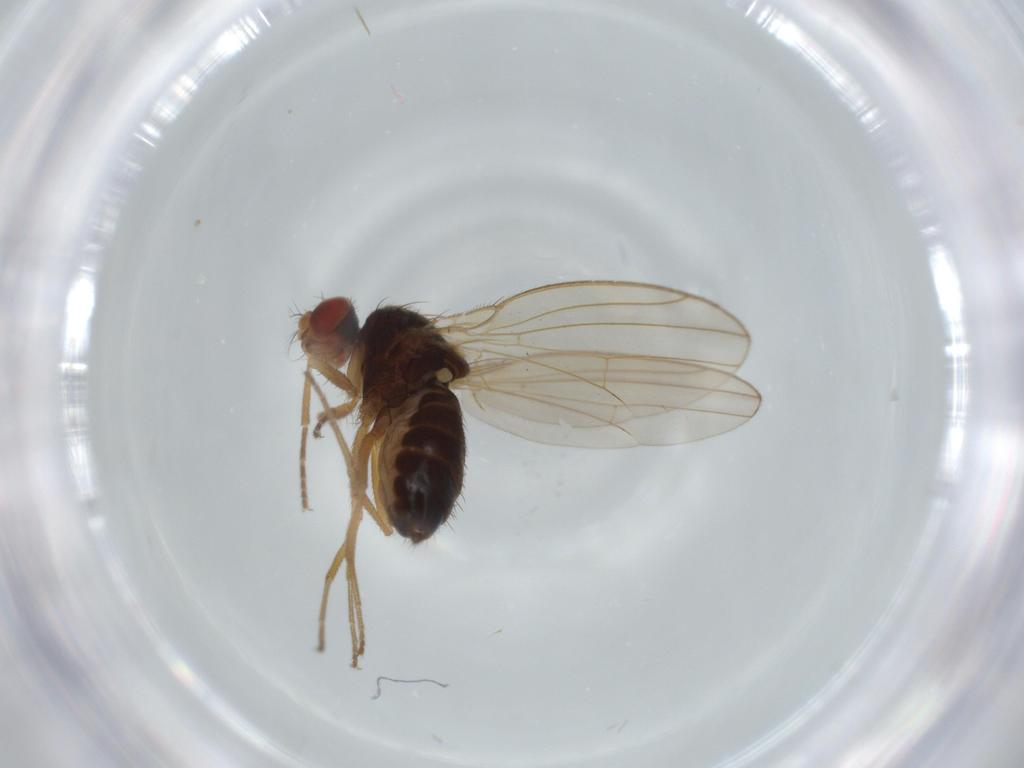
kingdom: Animalia
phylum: Arthropoda
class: Insecta
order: Diptera
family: Drosophilidae
